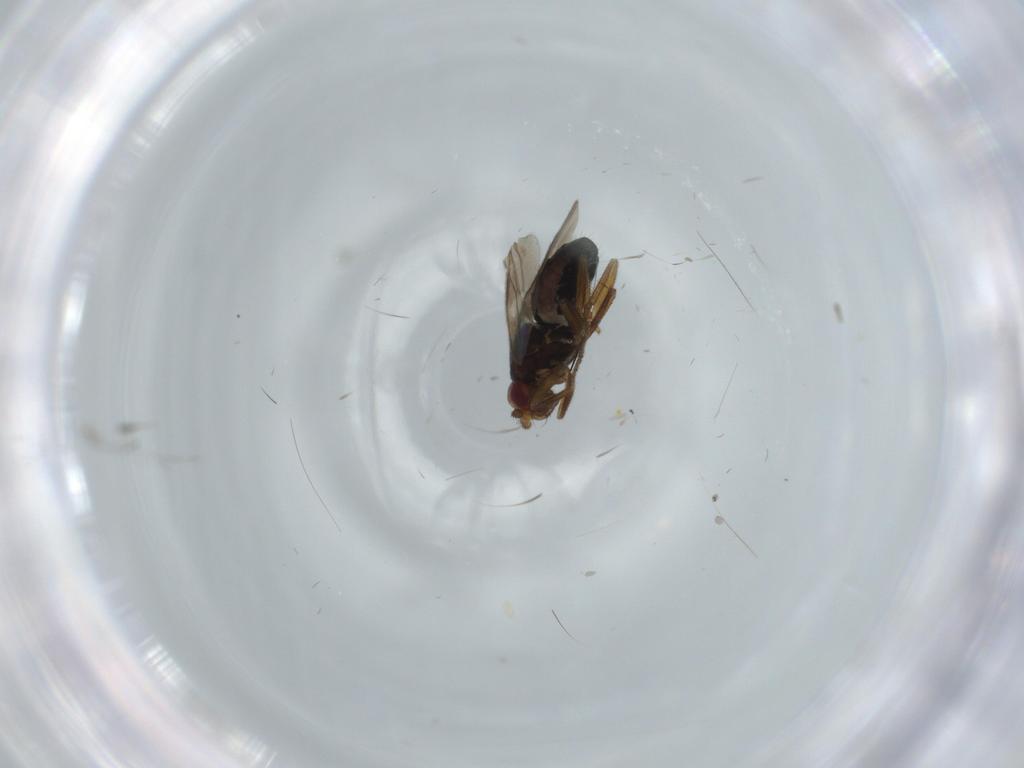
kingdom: Animalia
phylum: Arthropoda
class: Insecta
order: Diptera
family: Sphaeroceridae
